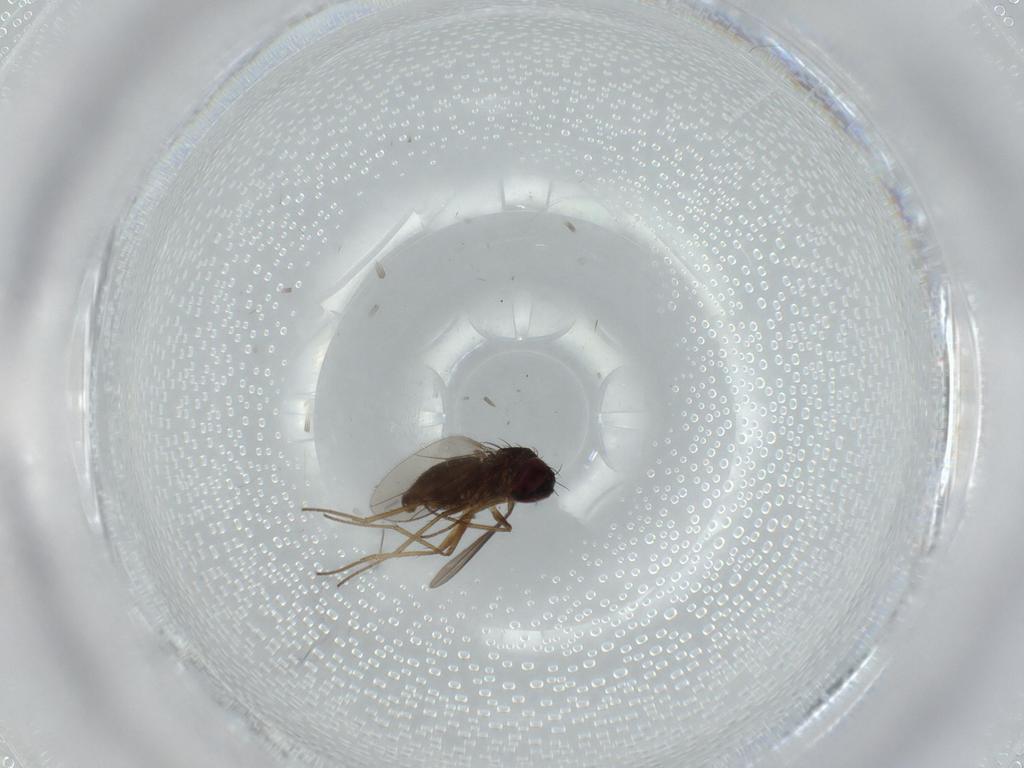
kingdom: Animalia
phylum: Arthropoda
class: Insecta
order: Diptera
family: Dolichopodidae
